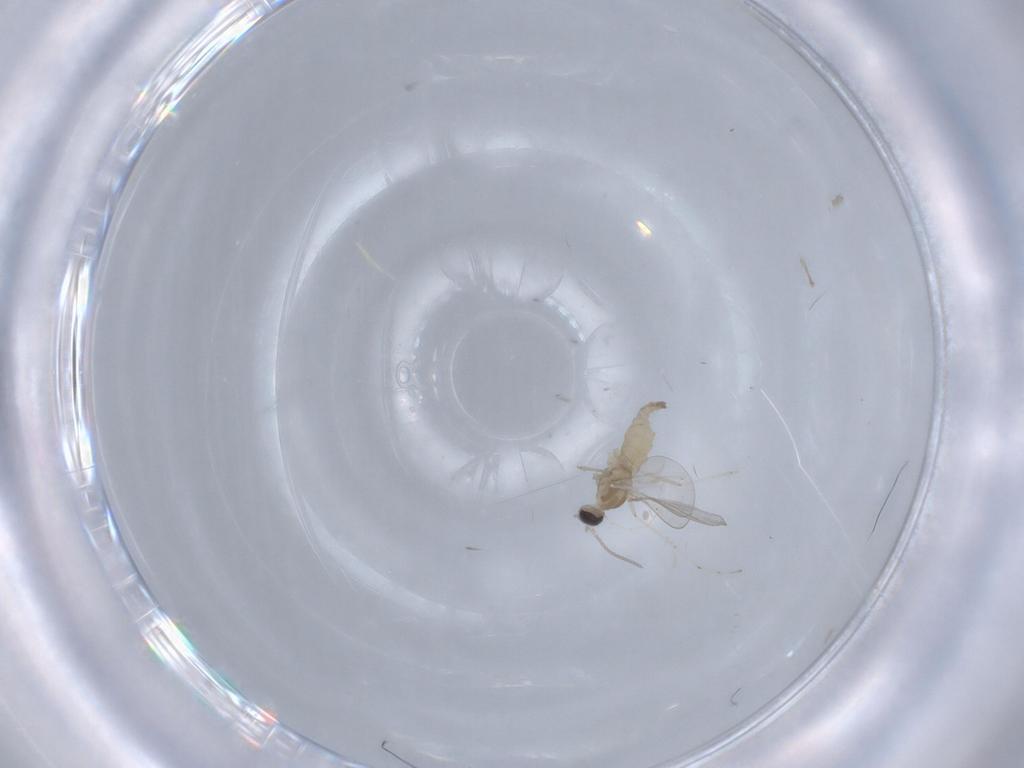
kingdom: Animalia
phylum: Arthropoda
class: Insecta
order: Diptera
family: Cecidomyiidae
